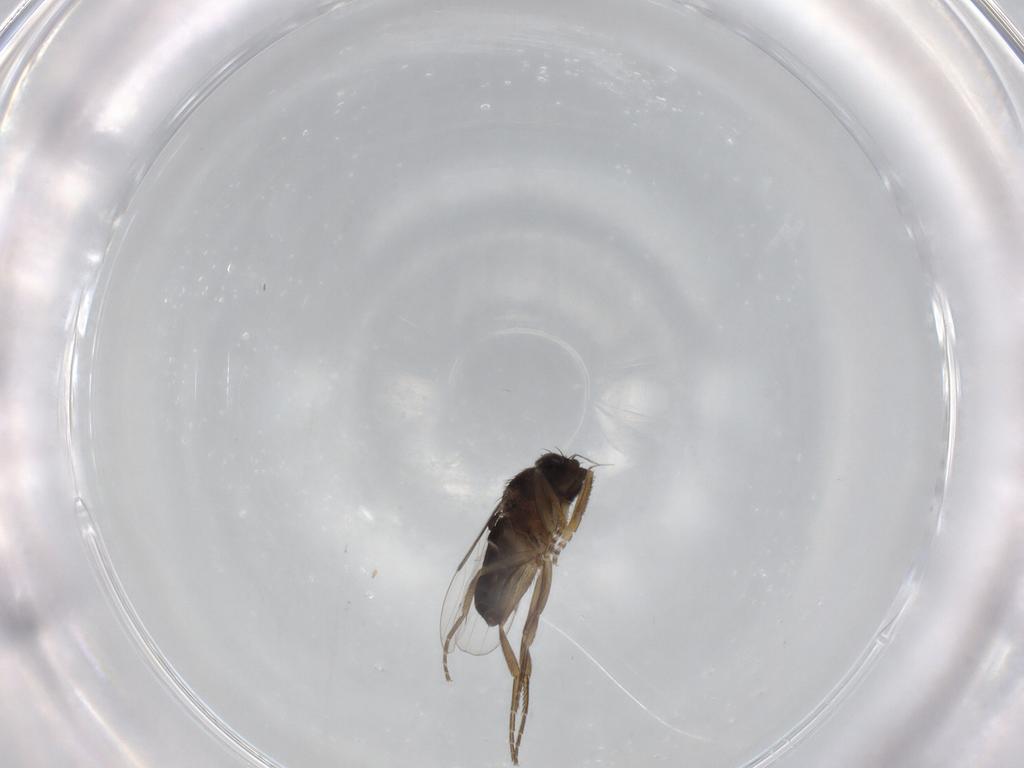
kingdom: Animalia
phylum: Arthropoda
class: Insecta
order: Diptera
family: Phoridae
